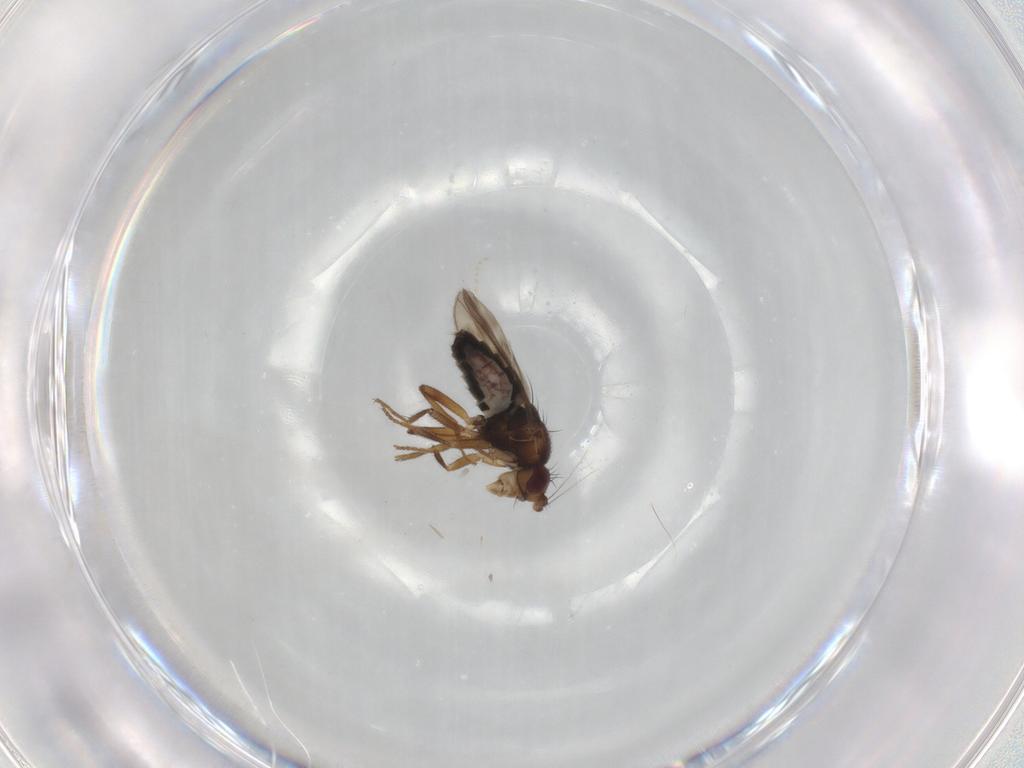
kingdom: Animalia
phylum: Arthropoda
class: Insecta
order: Diptera
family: Sphaeroceridae
